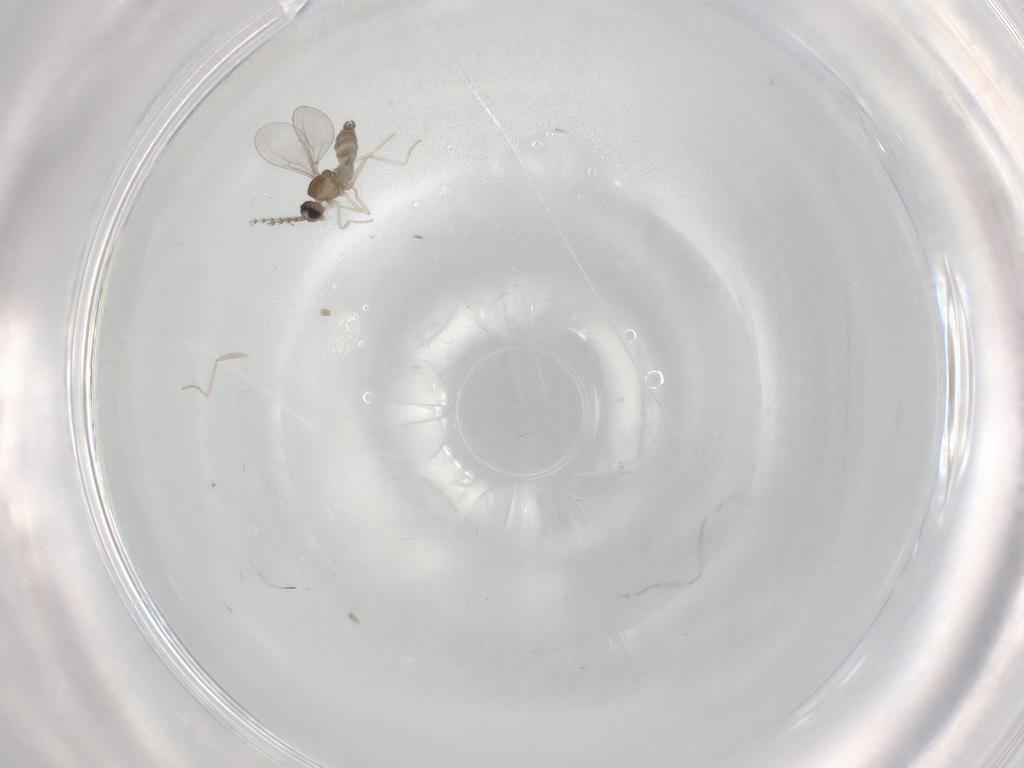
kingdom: Animalia
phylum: Arthropoda
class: Insecta
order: Diptera
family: Cecidomyiidae
